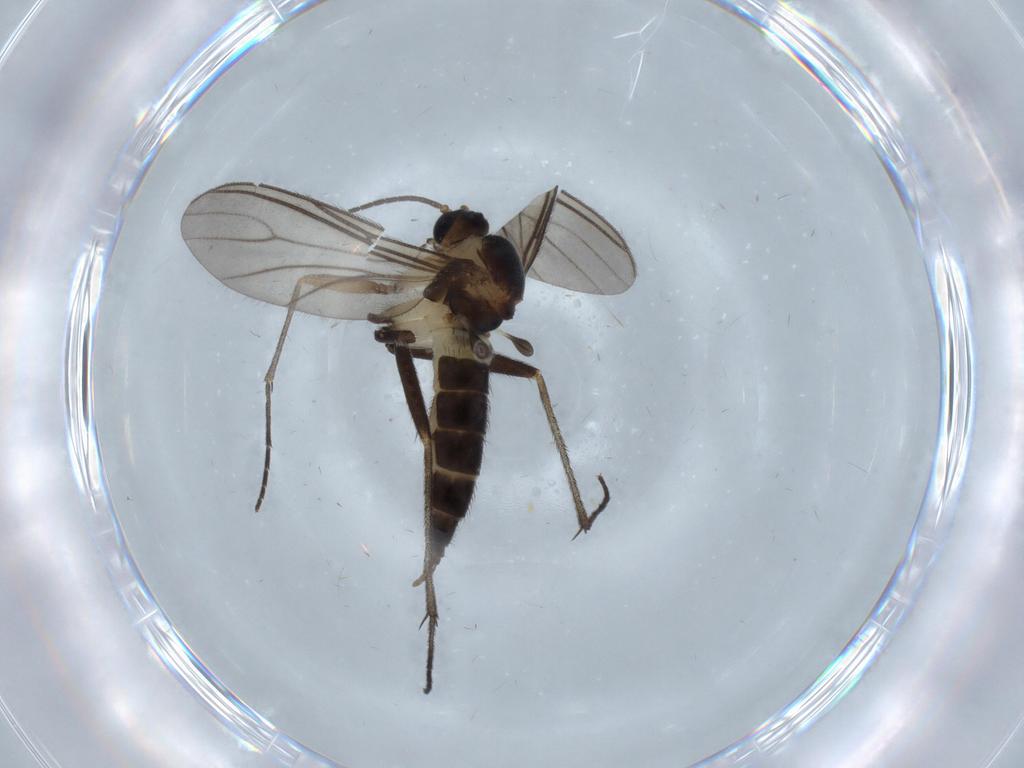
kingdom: Animalia
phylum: Arthropoda
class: Insecta
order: Diptera
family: Sciaridae
